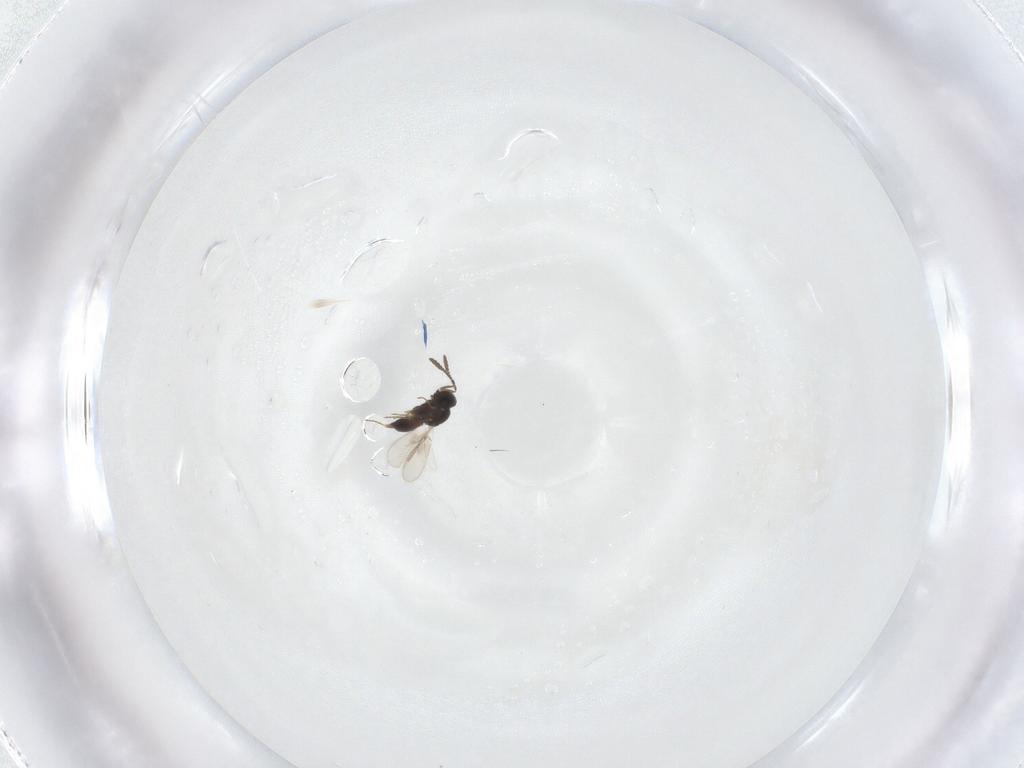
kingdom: Animalia
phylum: Arthropoda
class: Insecta
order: Hymenoptera
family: Scelionidae
